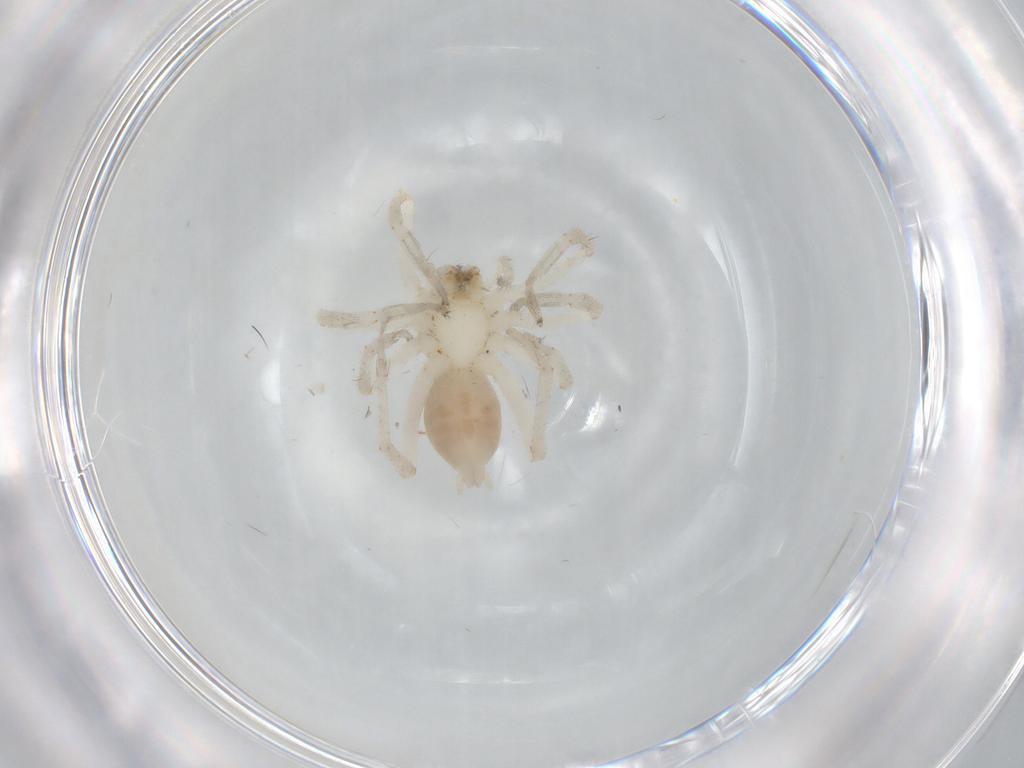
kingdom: Animalia
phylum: Arthropoda
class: Arachnida
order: Araneae
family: Anyphaenidae
